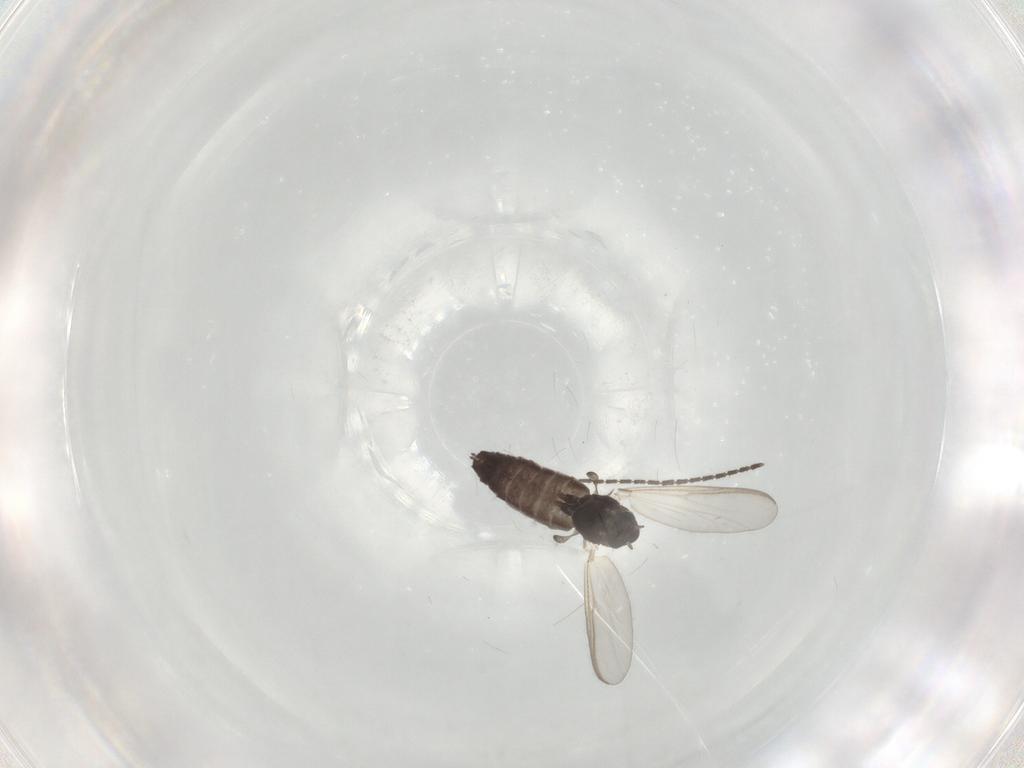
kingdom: Animalia
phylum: Arthropoda
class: Insecta
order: Diptera
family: Chironomidae
